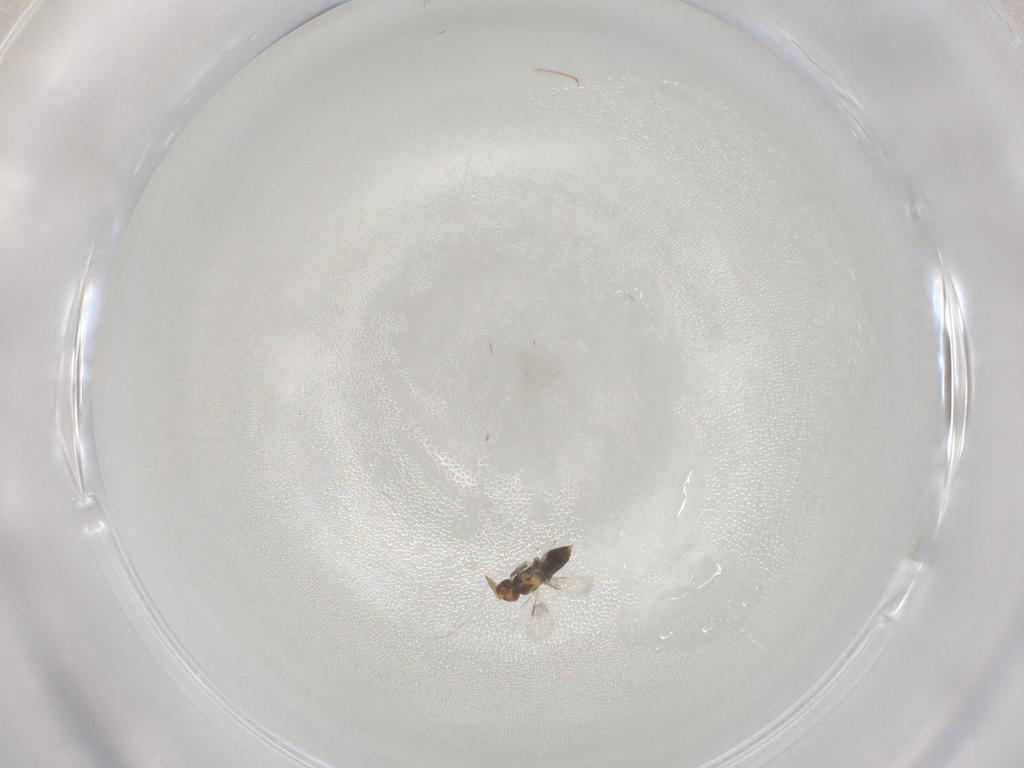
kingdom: Animalia
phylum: Arthropoda
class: Insecta
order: Hymenoptera
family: Aphelinidae
